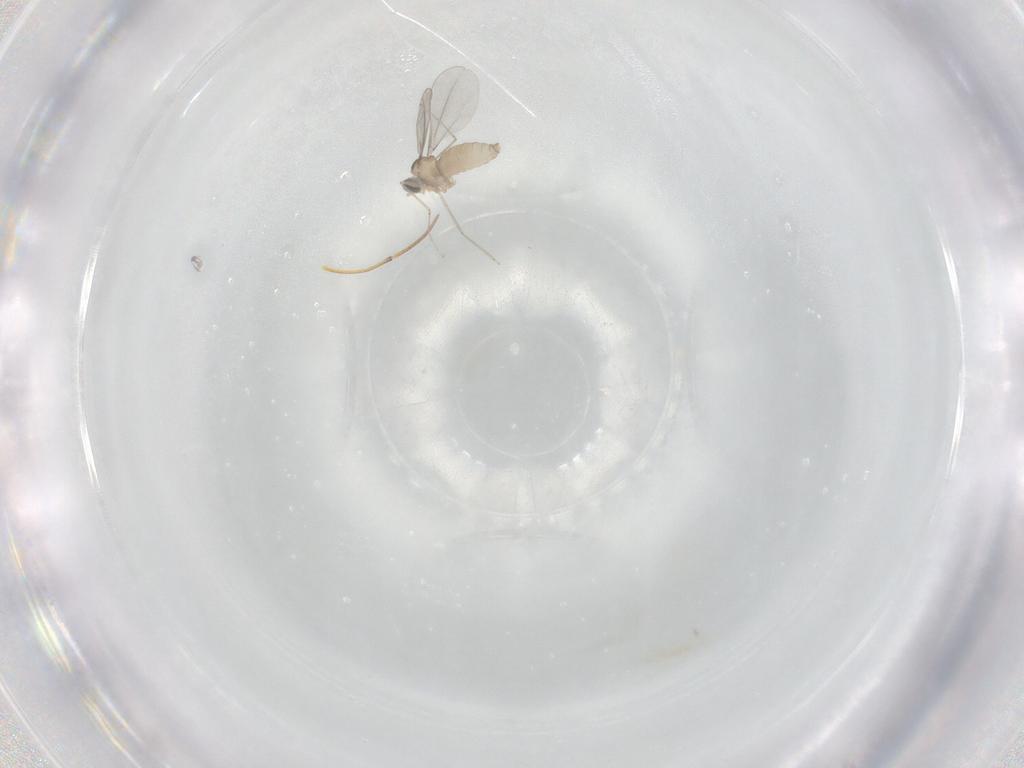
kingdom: Animalia
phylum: Arthropoda
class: Insecta
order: Diptera
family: Cecidomyiidae
